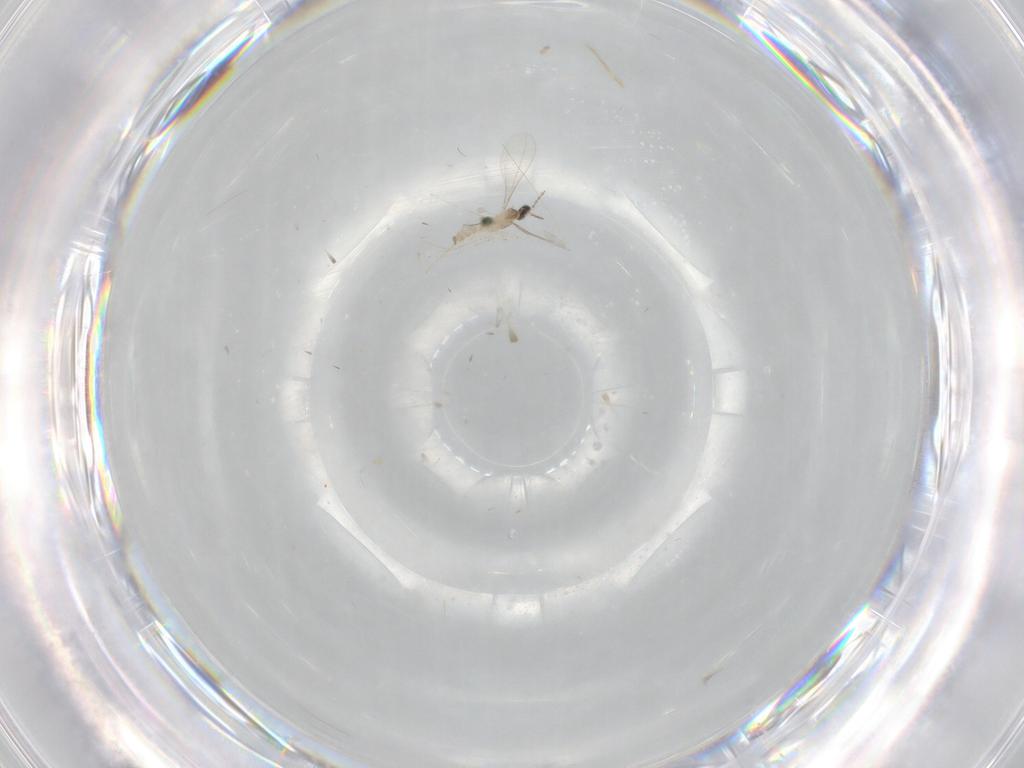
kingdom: Animalia
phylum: Arthropoda
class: Insecta
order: Diptera
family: Cecidomyiidae
